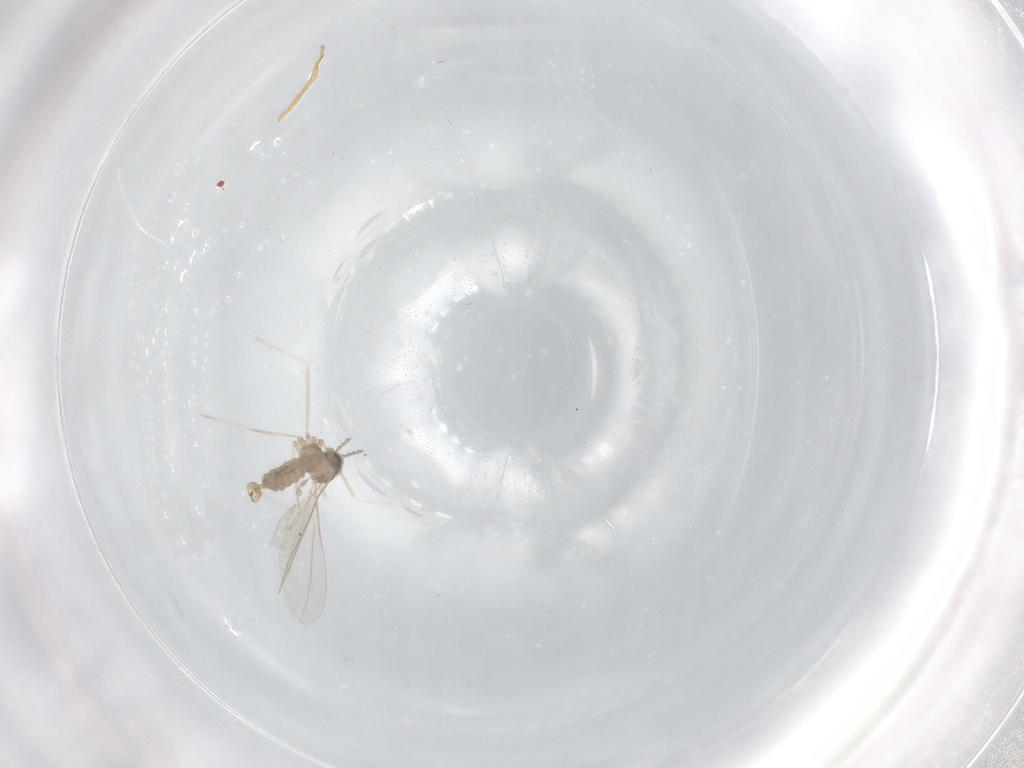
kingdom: Animalia
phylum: Arthropoda
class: Insecta
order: Diptera
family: Cecidomyiidae
